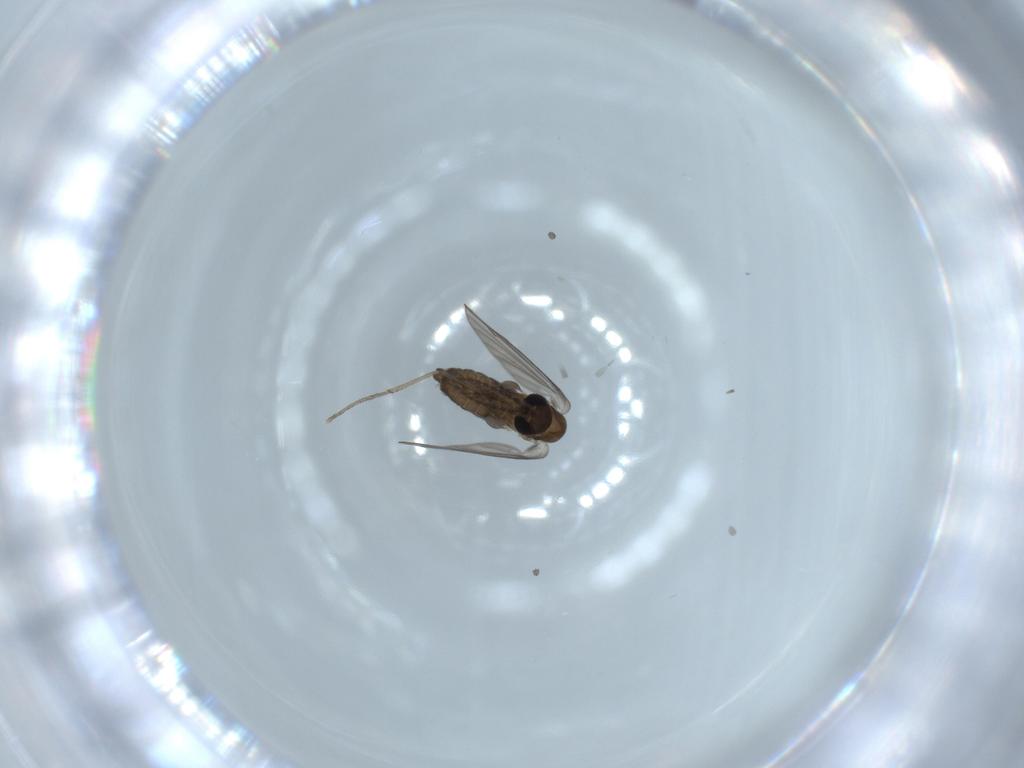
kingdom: Animalia
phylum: Arthropoda
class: Insecta
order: Diptera
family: Psychodidae
